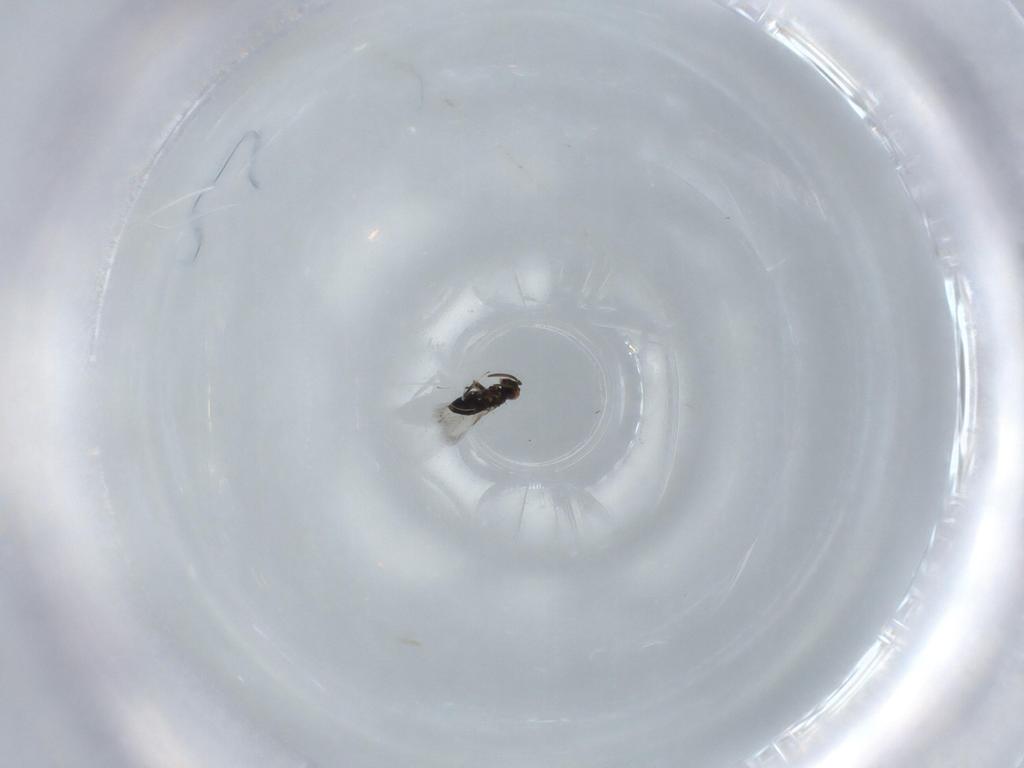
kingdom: Animalia
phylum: Arthropoda
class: Insecta
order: Hymenoptera
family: Signiphoridae
